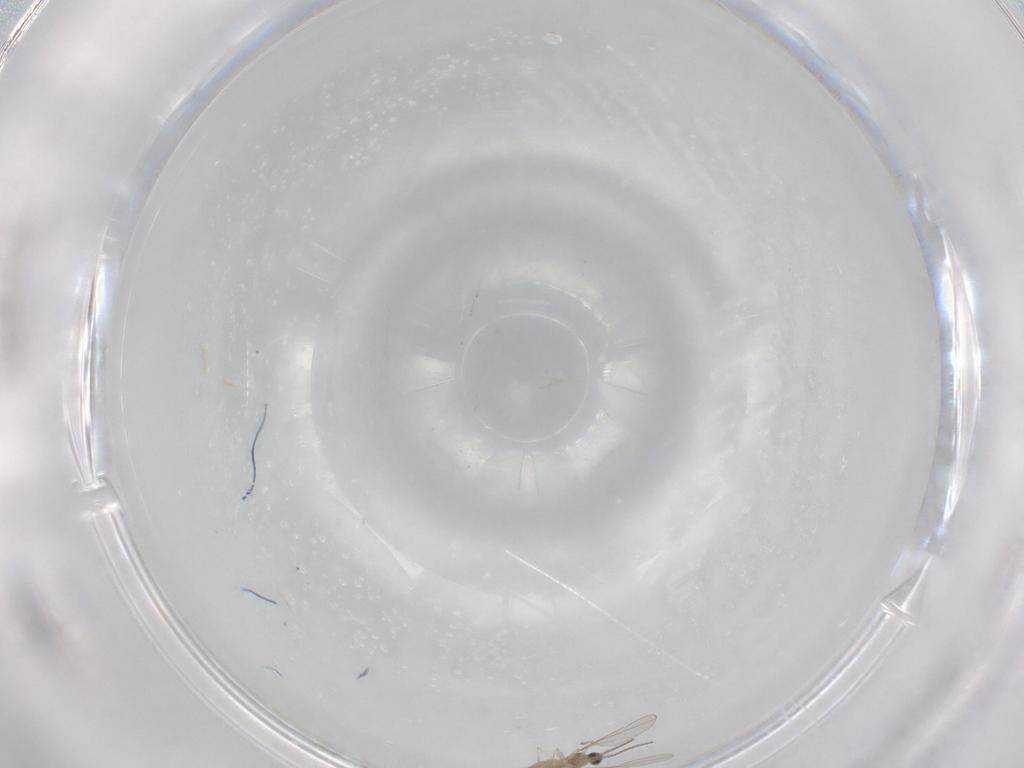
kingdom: Animalia
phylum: Arthropoda
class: Insecta
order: Diptera
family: Cecidomyiidae
